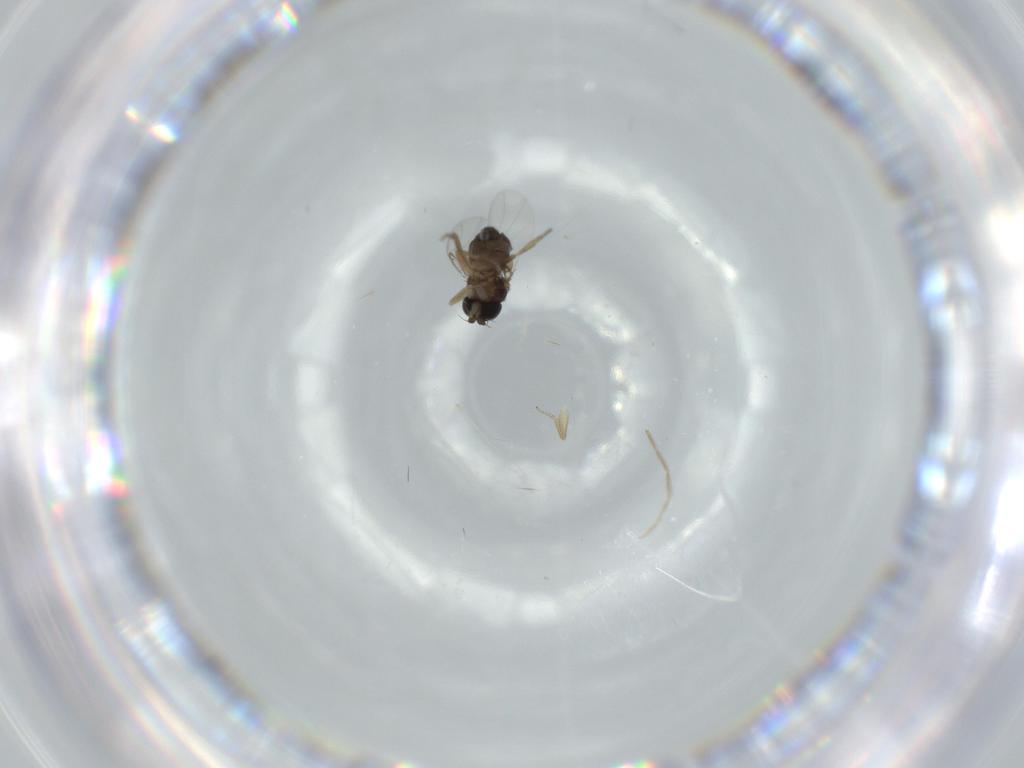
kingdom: Animalia
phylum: Arthropoda
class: Insecta
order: Diptera
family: Phoridae
